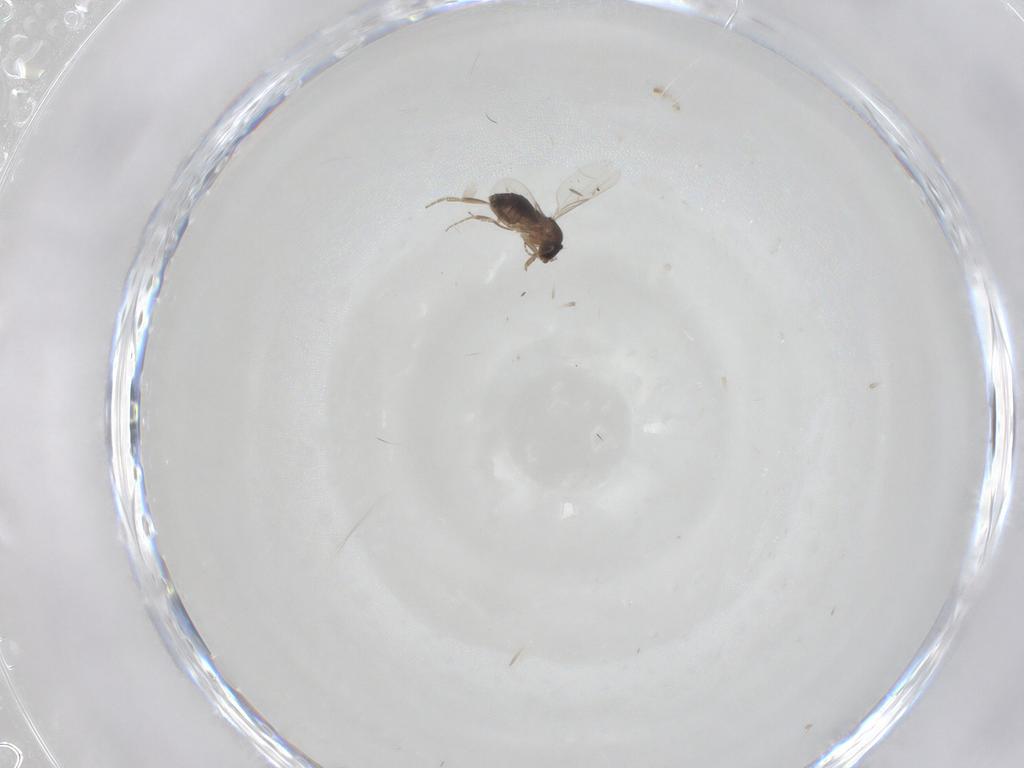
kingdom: Animalia
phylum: Arthropoda
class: Insecta
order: Diptera
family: Phoridae
